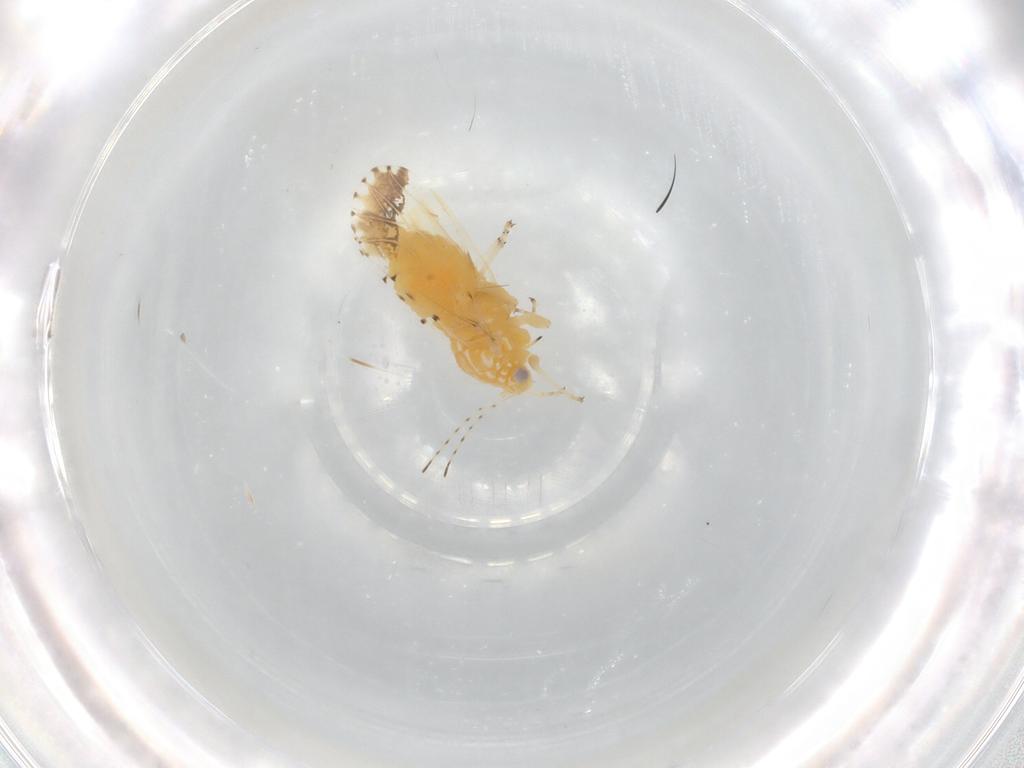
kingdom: Animalia
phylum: Arthropoda
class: Insecta
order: Hemiptera
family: Psyllidae
